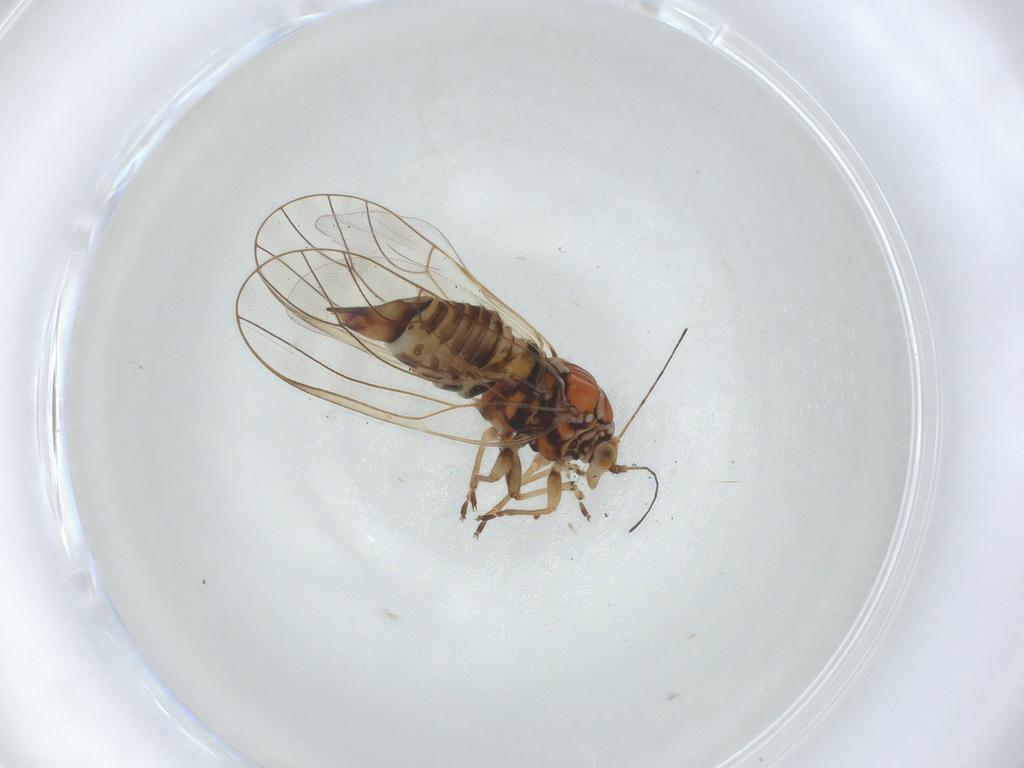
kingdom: Animalia
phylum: Arthropoda
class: Insecta
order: Hemiptera
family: Psyllidae
